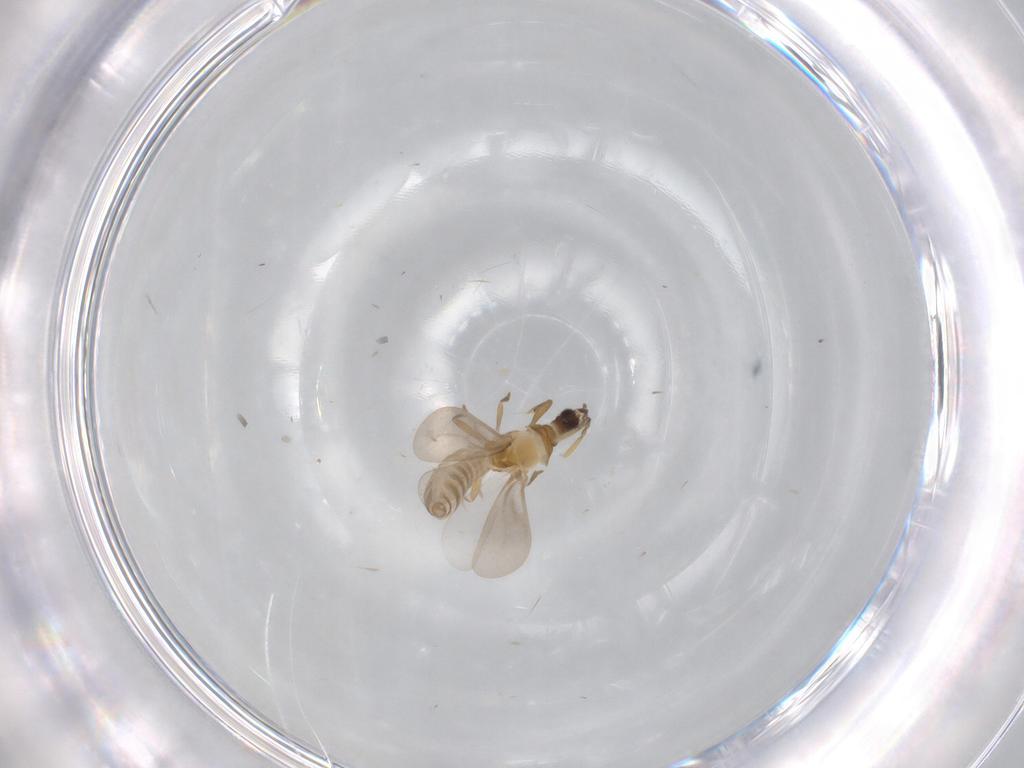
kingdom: Animalia
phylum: Arthropoda
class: Insecta
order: Hemiptera
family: Enicocephalidae
